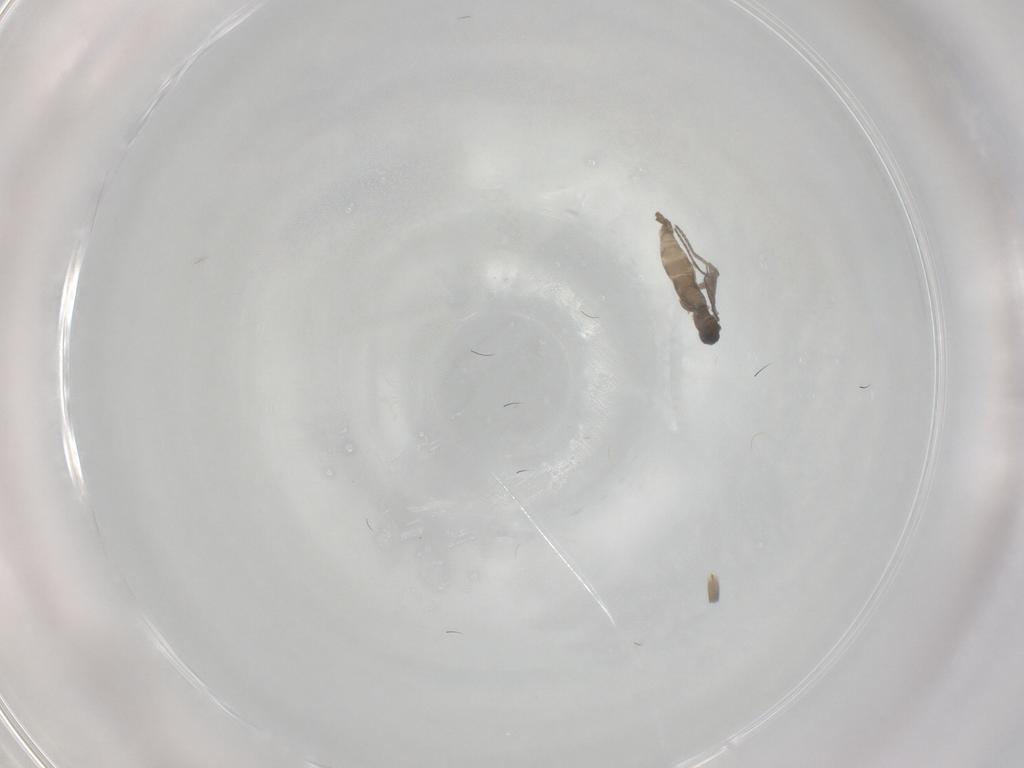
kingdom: Animalia
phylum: Arthropoda
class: Insecta
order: Diptera
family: Sciaridae
